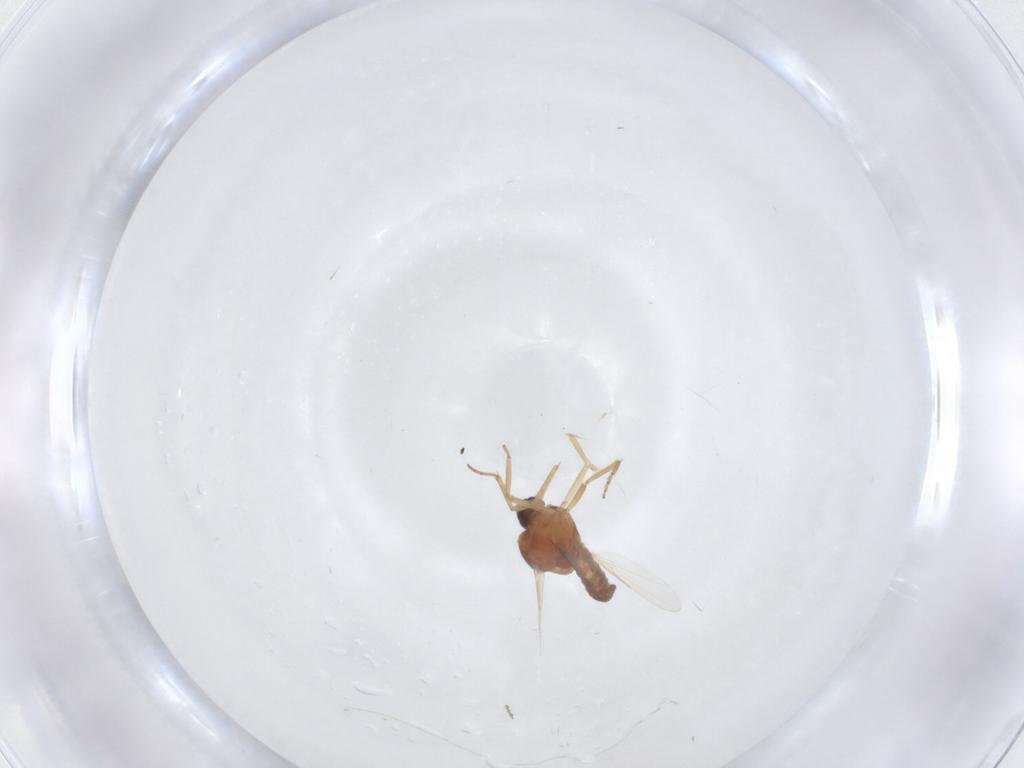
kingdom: Animalia
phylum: Arthropoda
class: Insecta
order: Diptera
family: Ceratopogonidae
